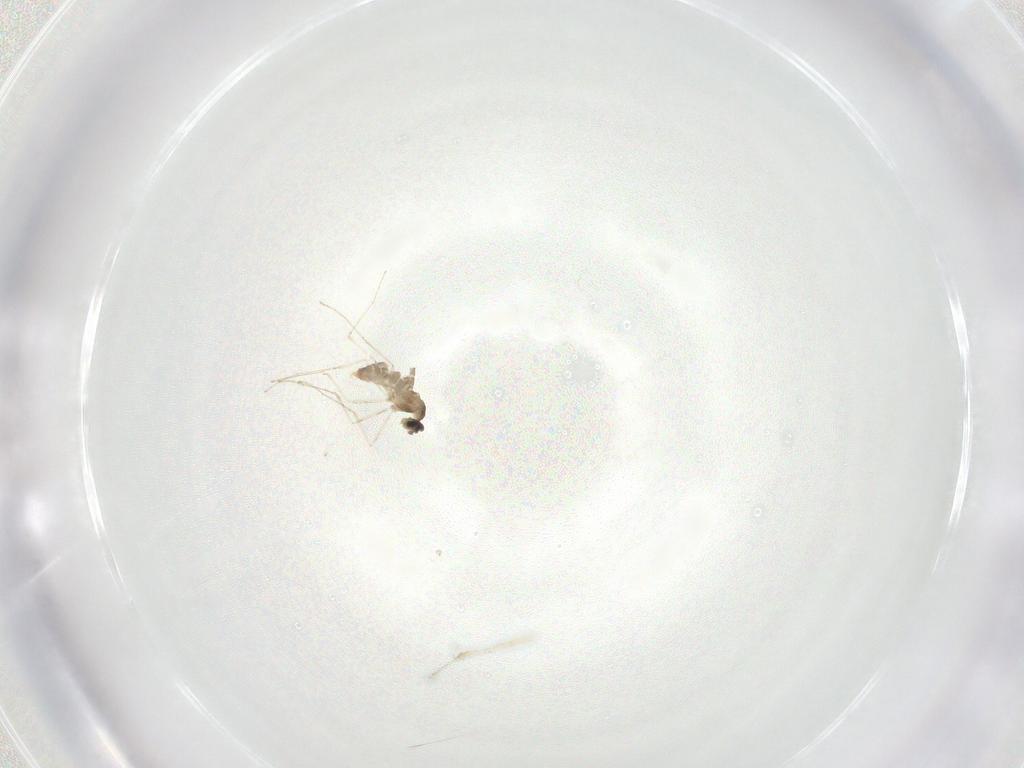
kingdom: Animalia
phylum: Arthropoda
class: Insecta
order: Diptera
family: Cecidomyiidae
